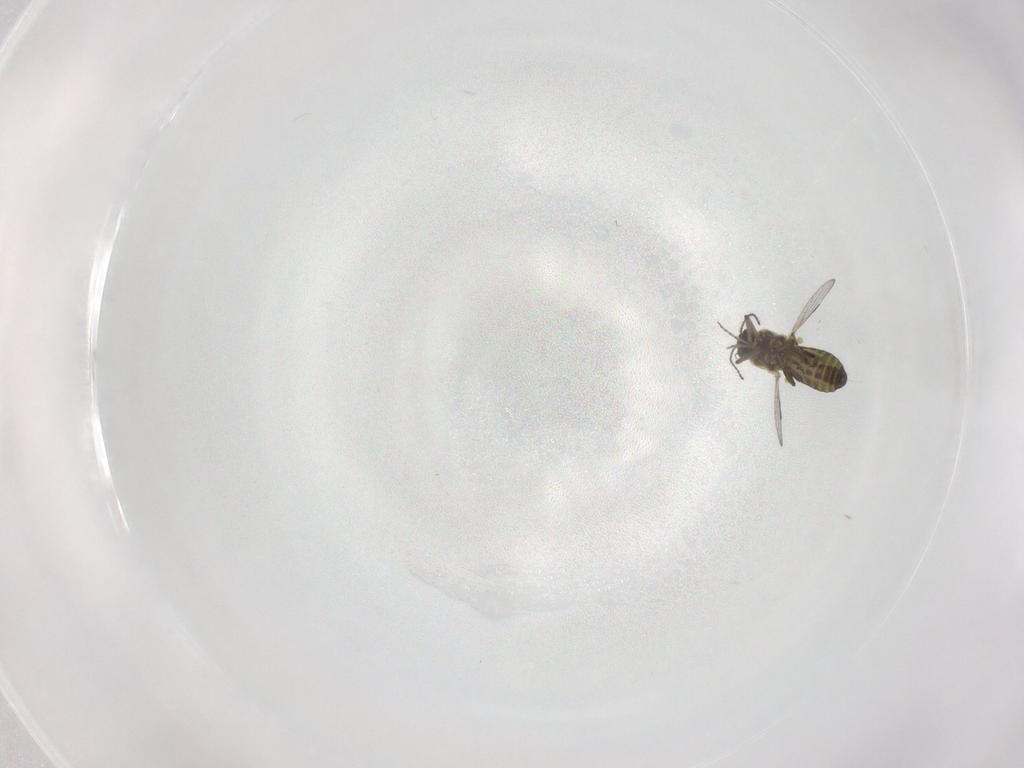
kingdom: Animalia
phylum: Arthropoda
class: Insecta
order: Diptera
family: Ceratopogonidae
